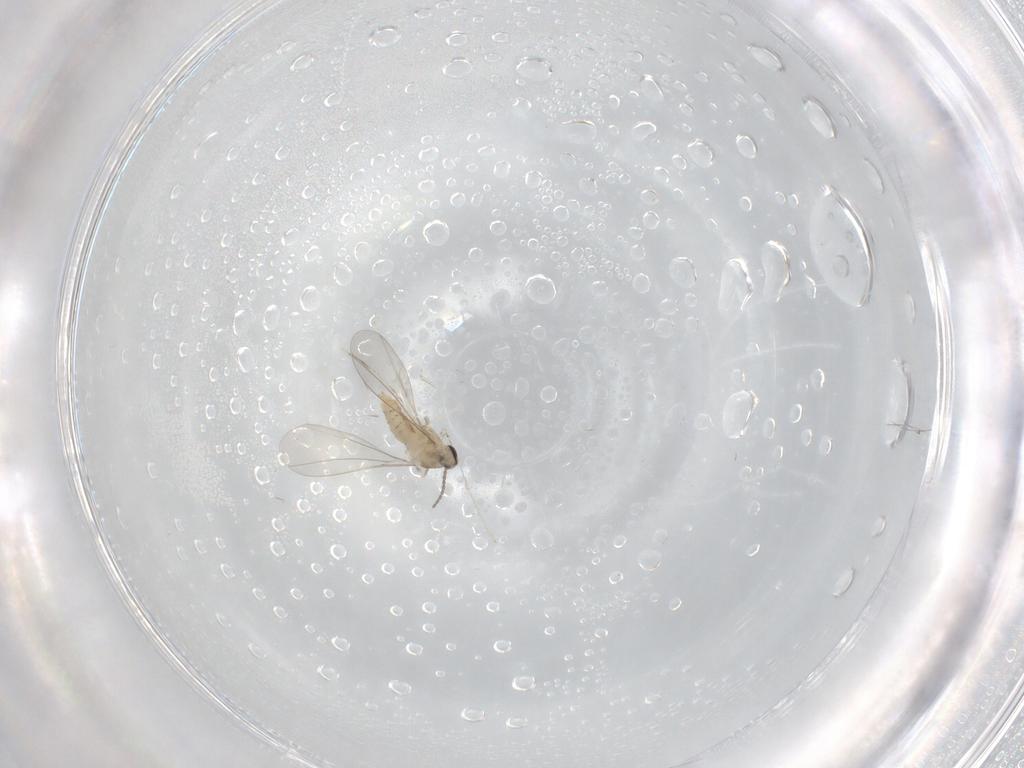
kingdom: Animalia
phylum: Arthropoda
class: Insecta
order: Diptera
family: Cecidomyiidae
